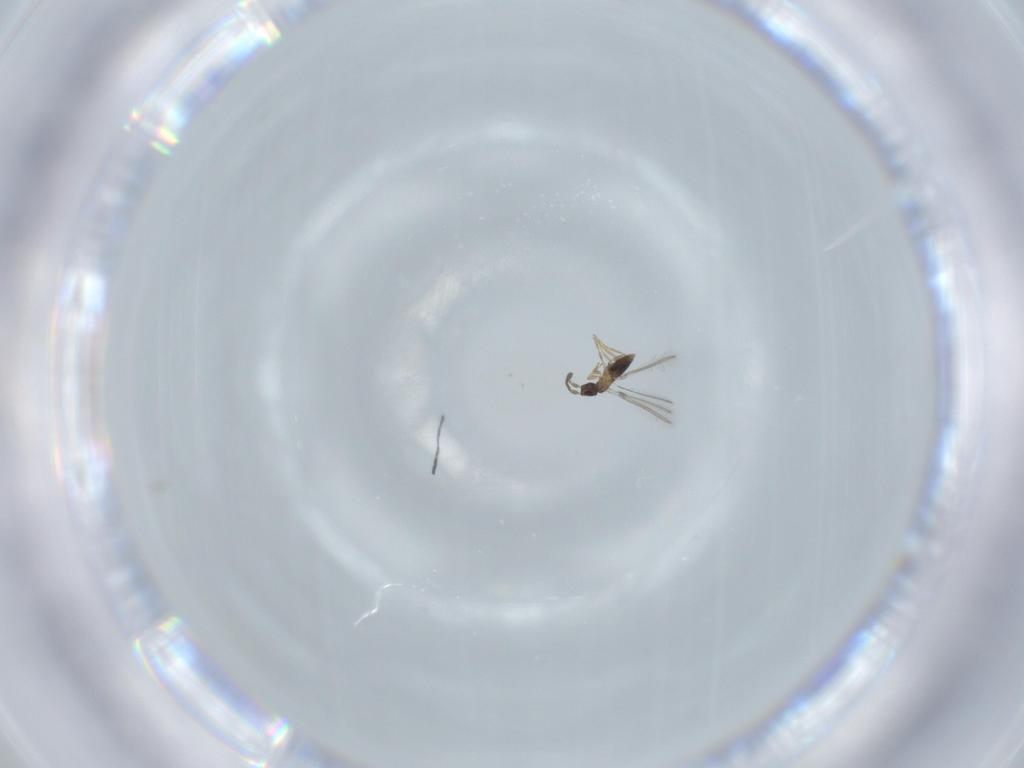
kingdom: Animalia
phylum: Arthropoda
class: Insecta
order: Hymenoptera
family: Mymaridae
